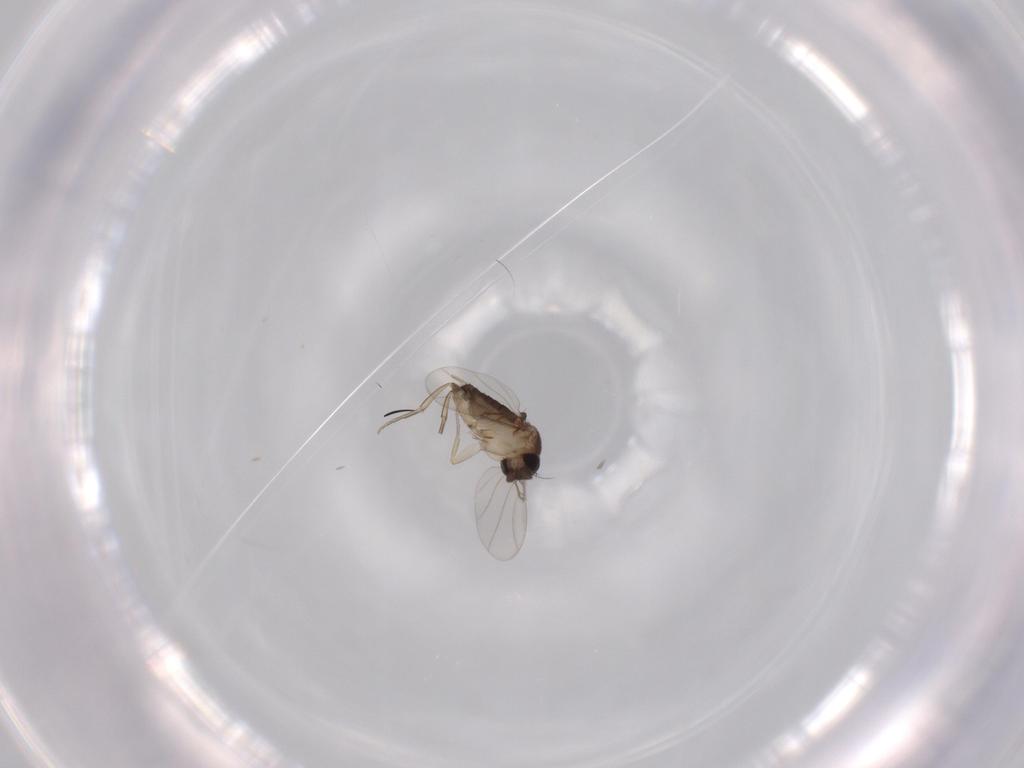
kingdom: Animalia
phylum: Arthropoda
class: Insecta
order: Diptera
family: Phoridae
